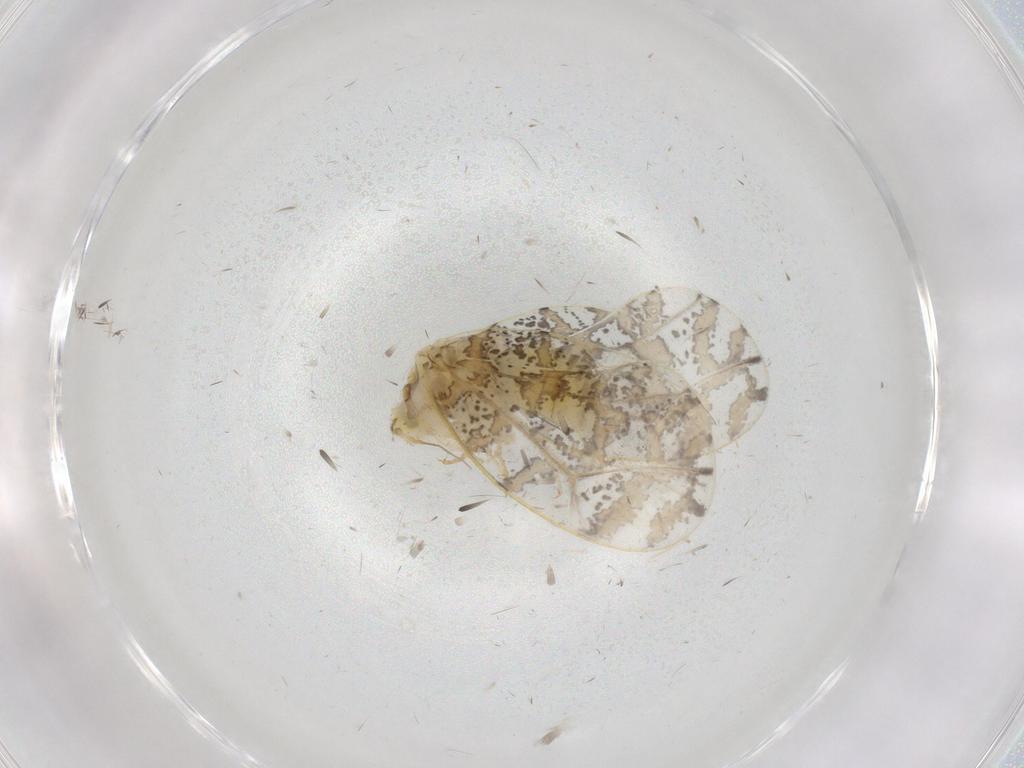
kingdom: Animalia
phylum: Arthropoda
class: Insecta
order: Hemiptera
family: Aleyrodidae
